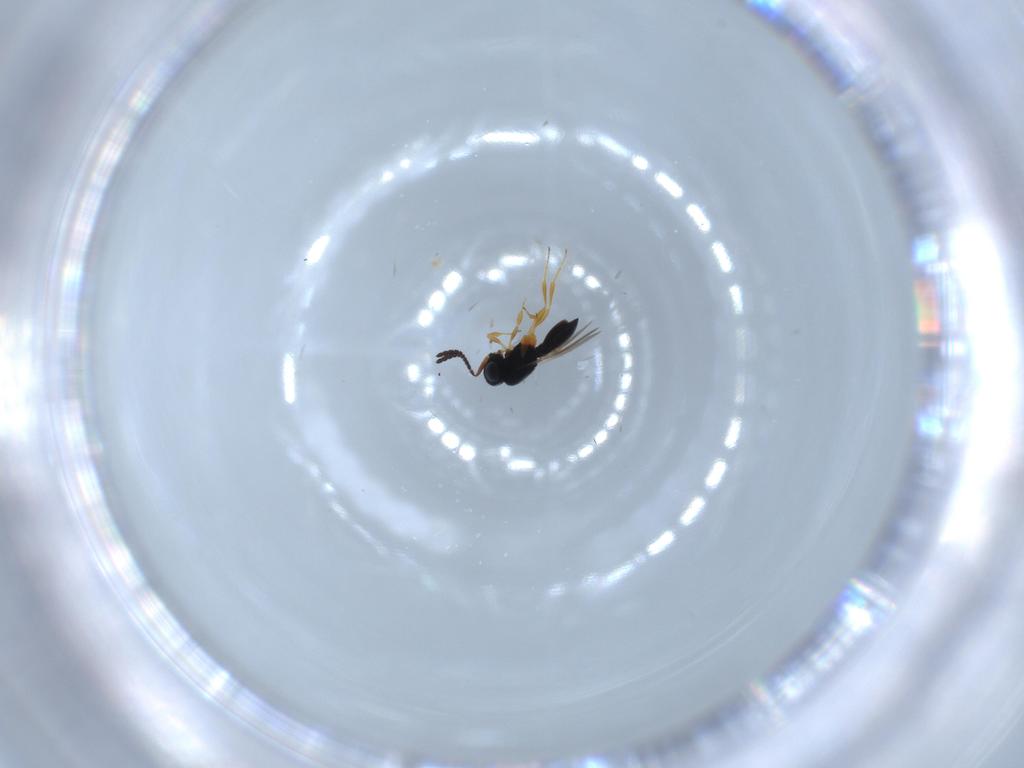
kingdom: Animalia
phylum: Arthropoda
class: Insecta
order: Hymenoptera
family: Scelionidae
